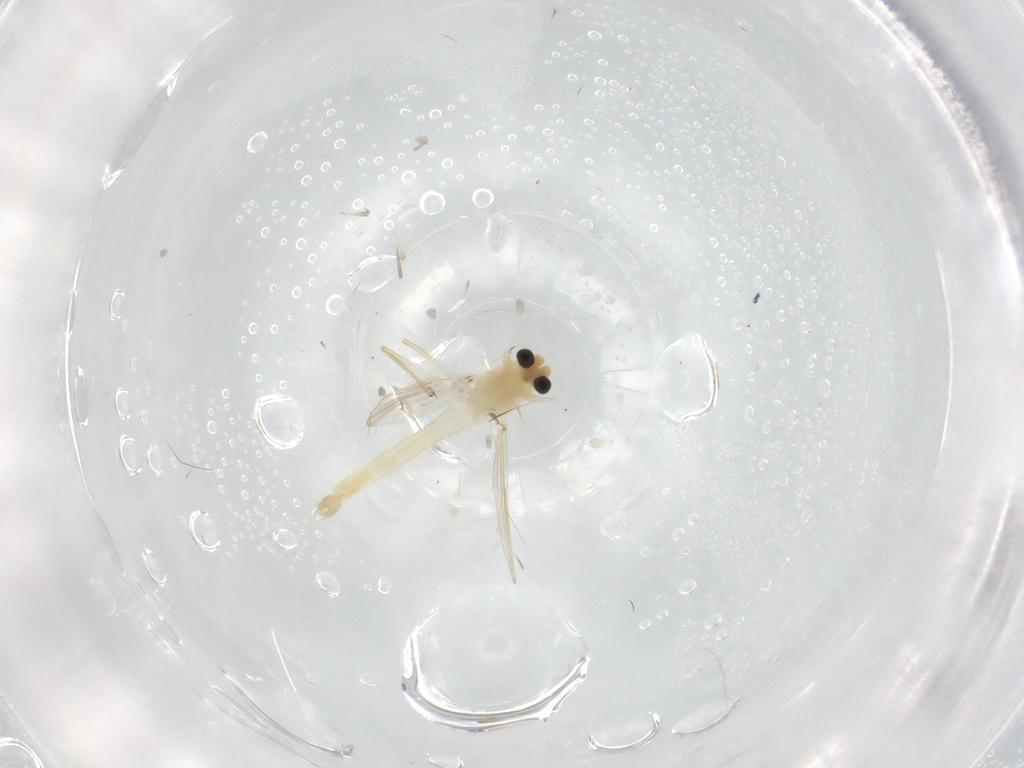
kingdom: Animalia
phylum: Arthropoda
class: Insecta
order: Diptera
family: Chironomidae
